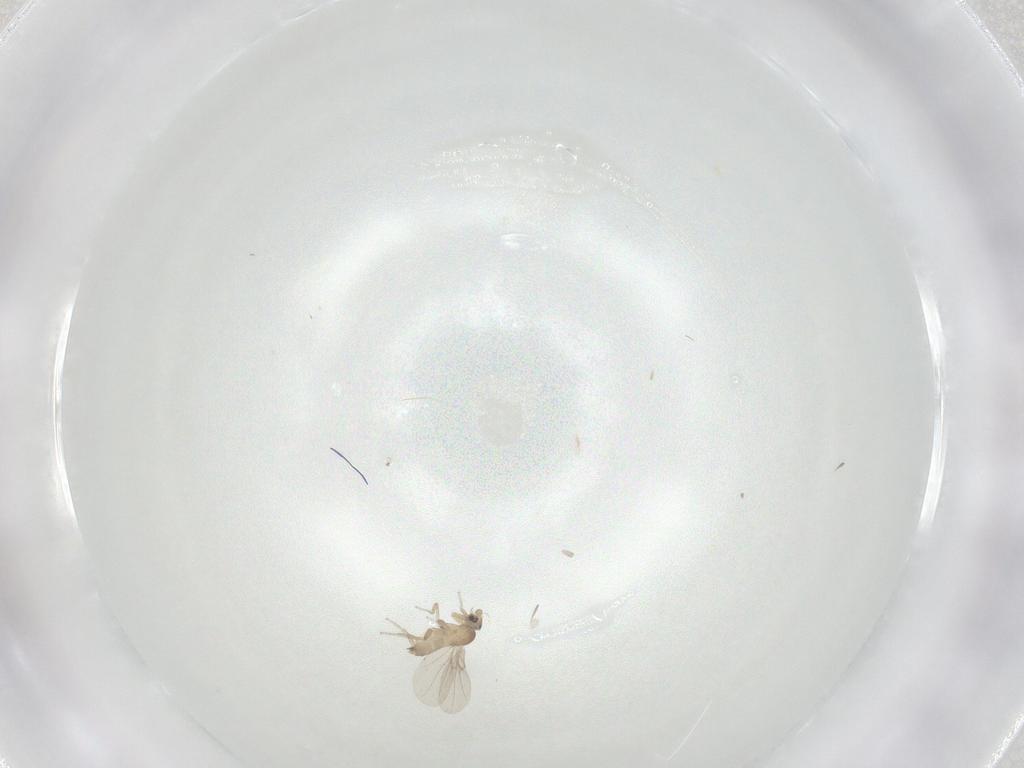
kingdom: Animalia
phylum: Arthropoda
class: Insecta
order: Diptera
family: Phoridae
